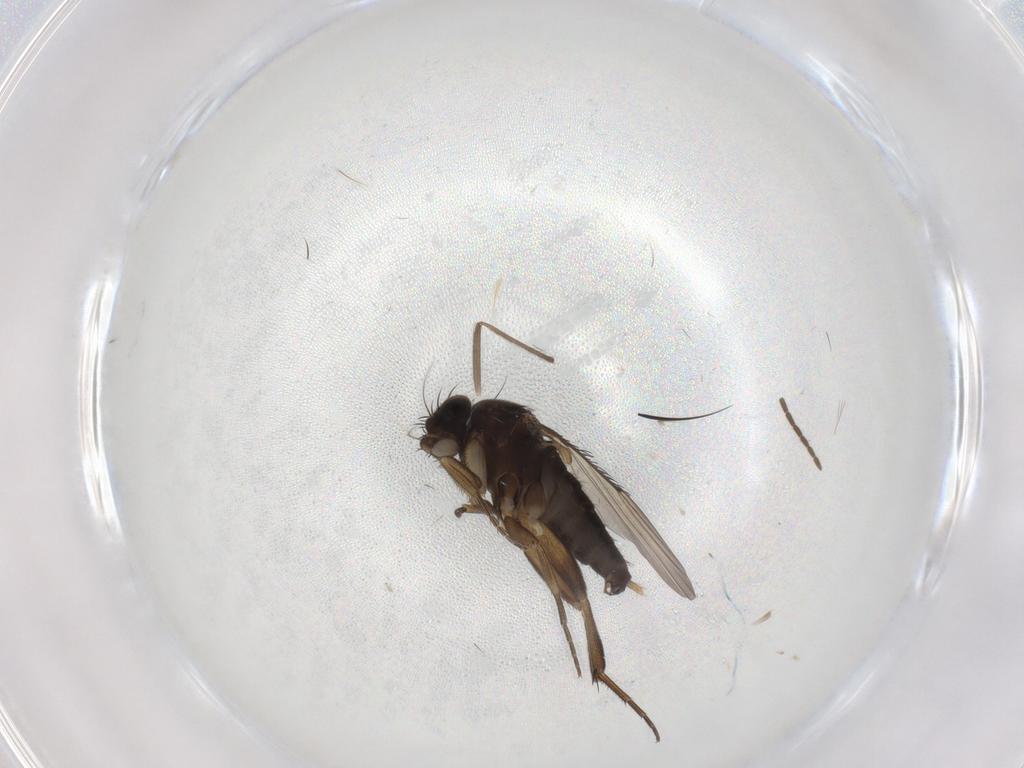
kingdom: Animalia
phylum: Arthropoda
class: Insecta
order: Diptera
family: Phoridae
